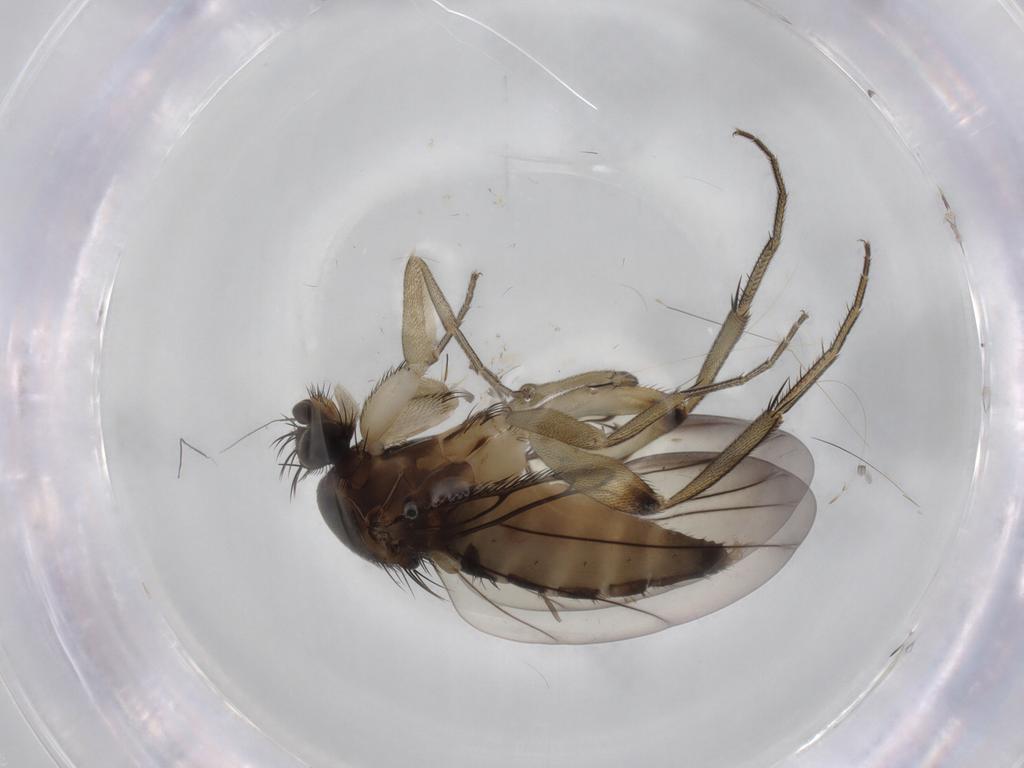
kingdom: Animalia
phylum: Arthropoda
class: Insecta
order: Diptera
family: Phoridae
